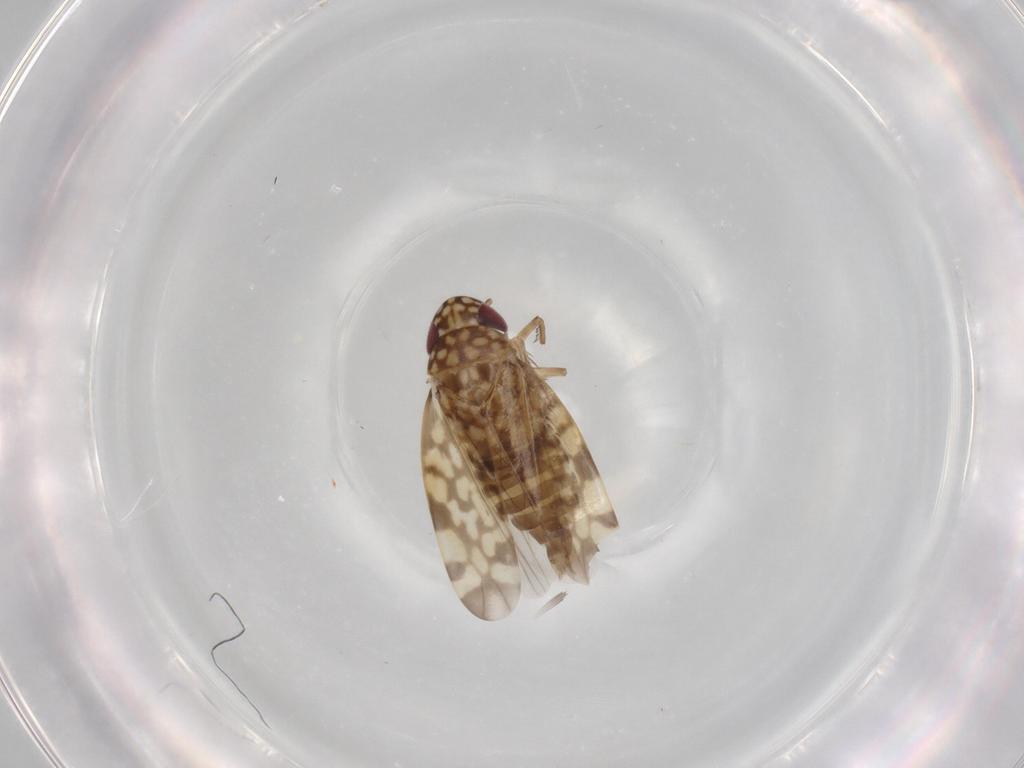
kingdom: Animalia
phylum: Arthropoda
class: Insecta
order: Hemiptera
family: Cicadellidae
